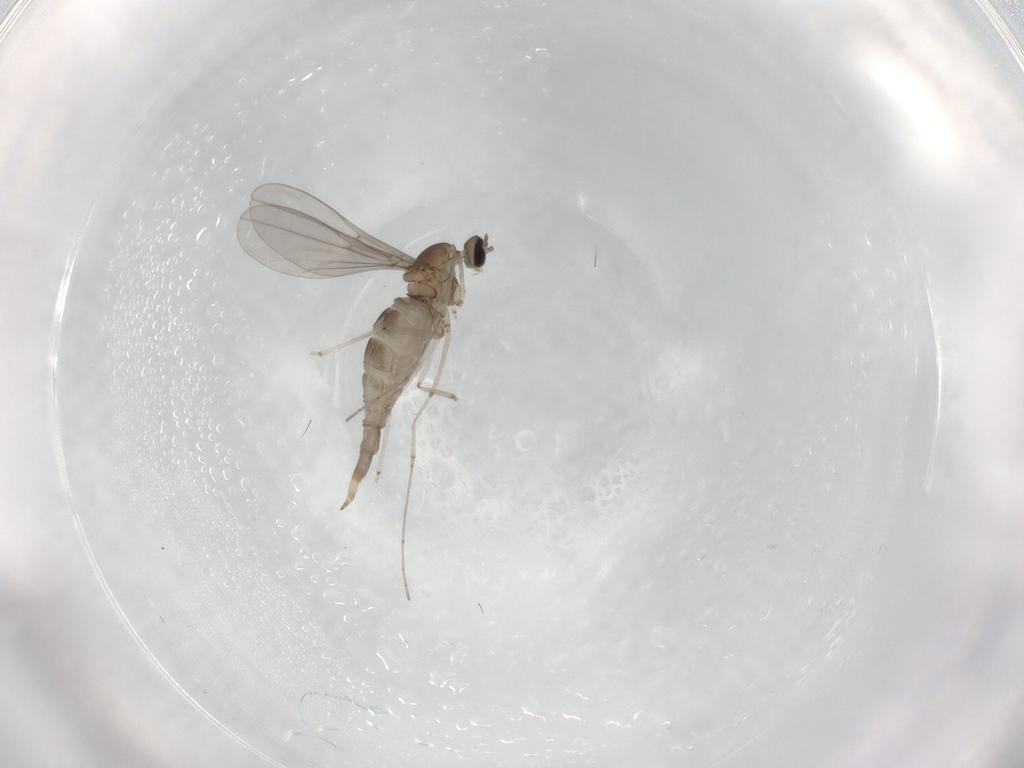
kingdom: Animalia
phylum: Arthropoda
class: Insecta
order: Diptera
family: Cecidomyiidae
